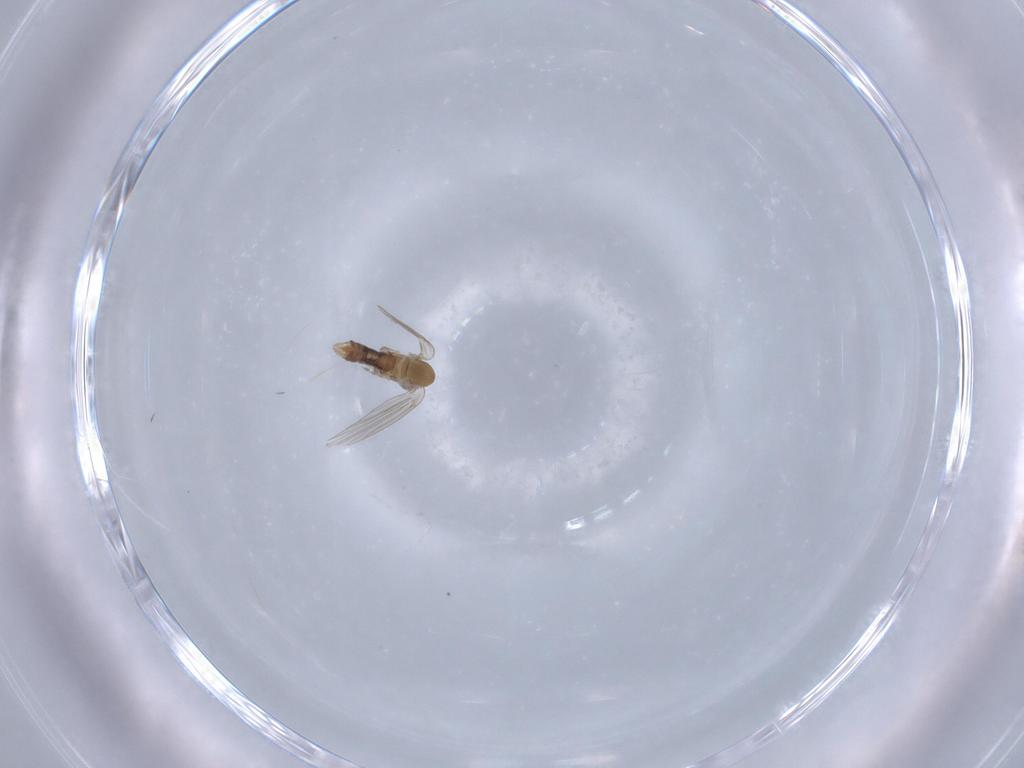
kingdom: Animalia
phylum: Arthropoda
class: Insecta
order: Diptera
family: Psychodidae
